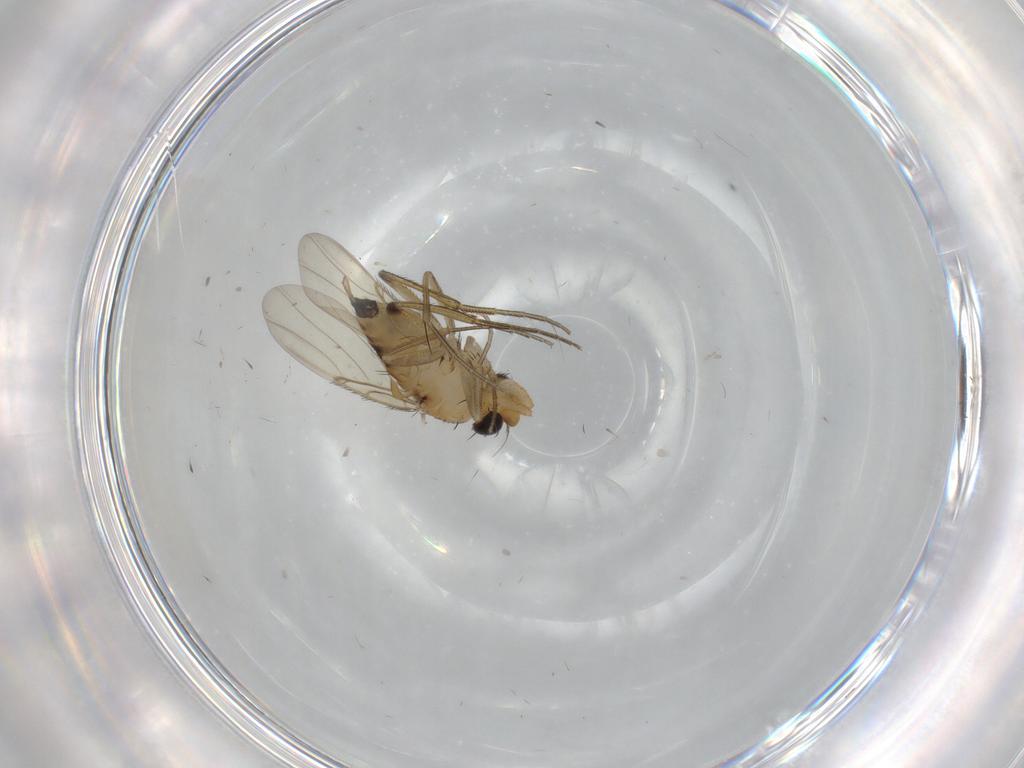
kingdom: Animalia
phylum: Arthropoda
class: Insecta
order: Diptera
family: Phoridae
